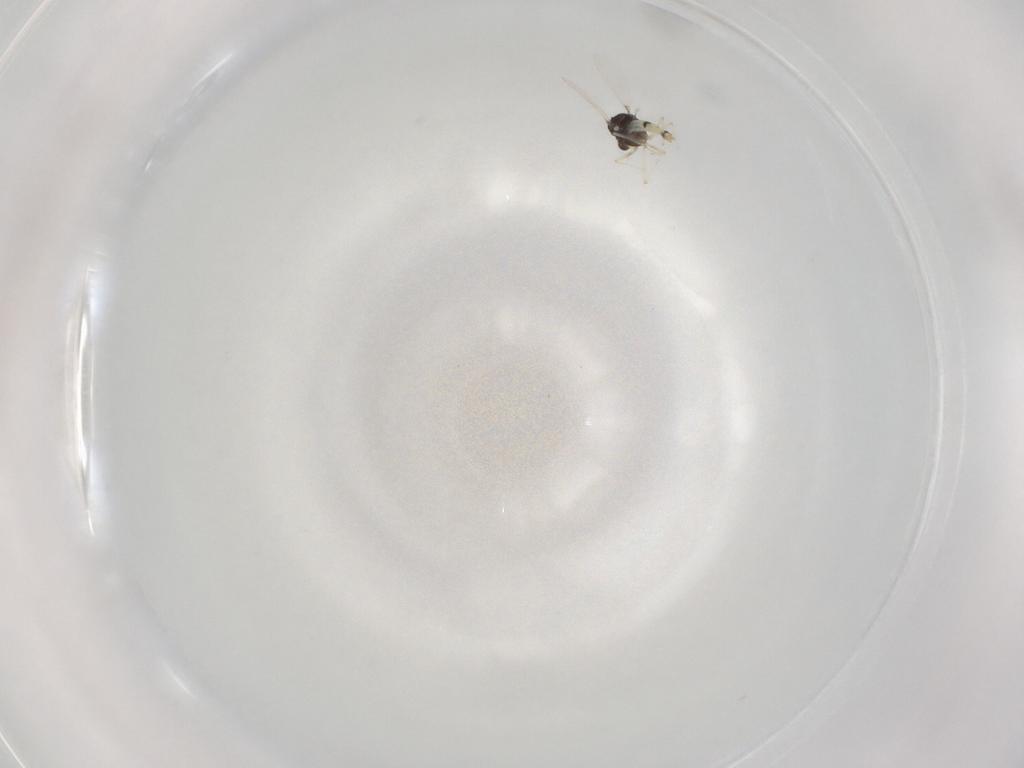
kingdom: Animalia
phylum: Arthropoda
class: Insecta
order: Diptera
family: Chironomidae
